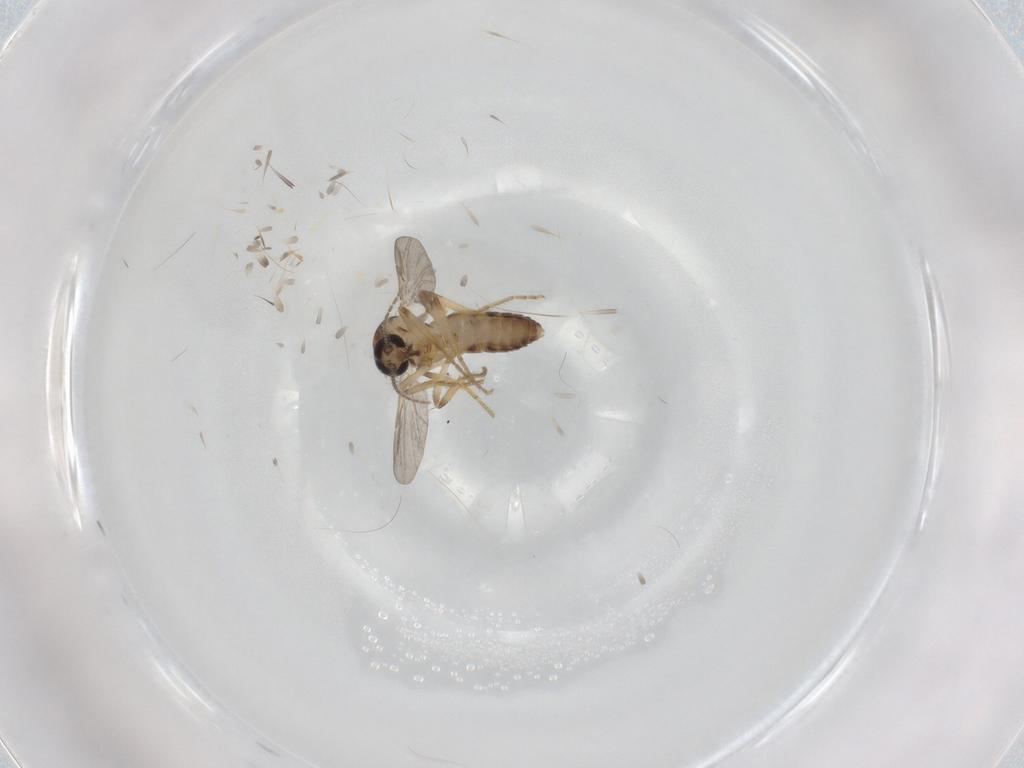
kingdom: Animalia
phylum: Arthropoda
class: Insecta
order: Diptera
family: Ceratopogonidae
